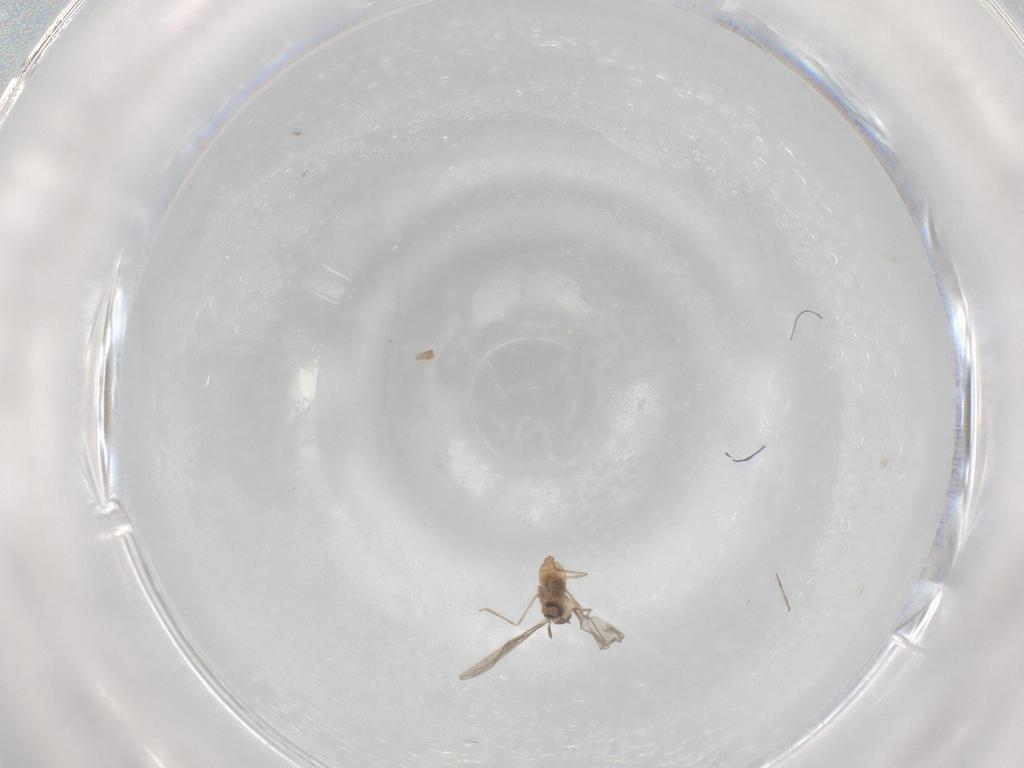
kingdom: Animalia
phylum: Arthropoda
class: Insecta
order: Diptera
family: Cecidomyiidae
